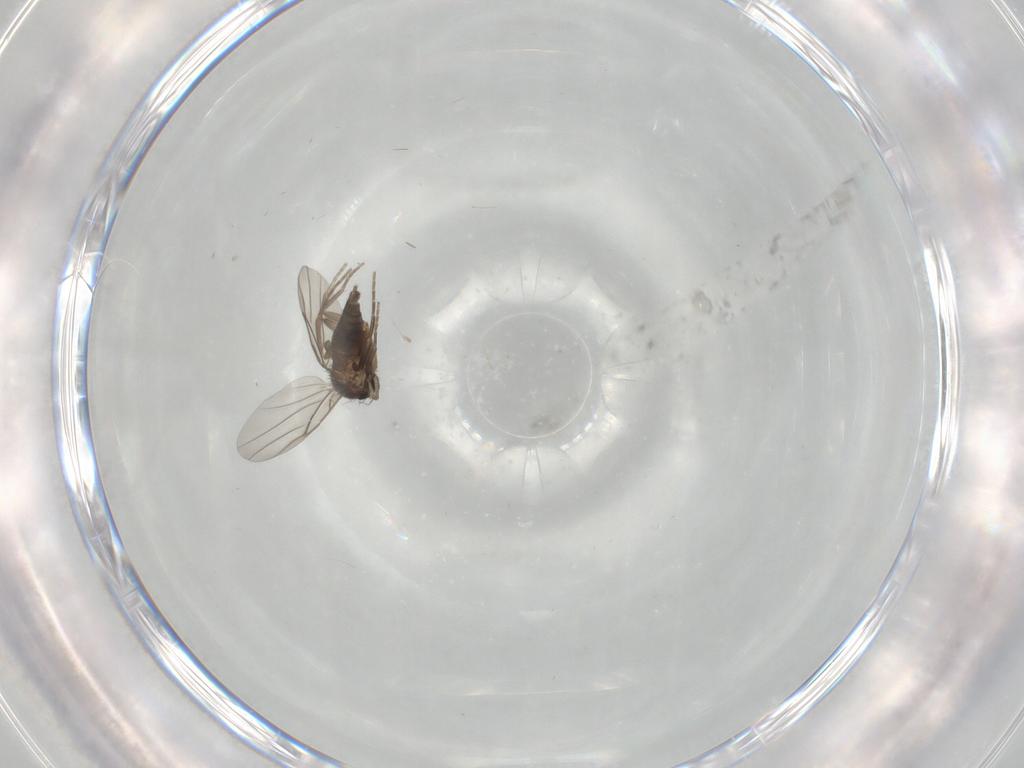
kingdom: Animalia
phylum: Arthropoda
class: Insecta
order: Diptera
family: Phoridae
